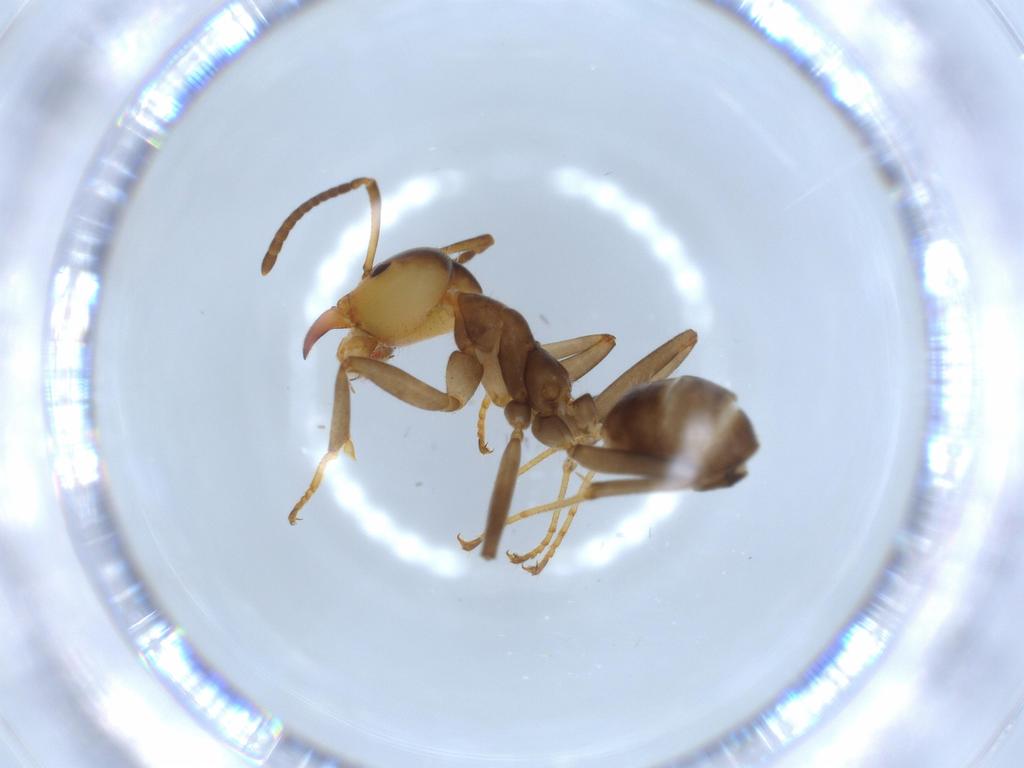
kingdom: Animalia
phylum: Arthropoda
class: Insecta
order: Hymenoptera
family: Formicidae
